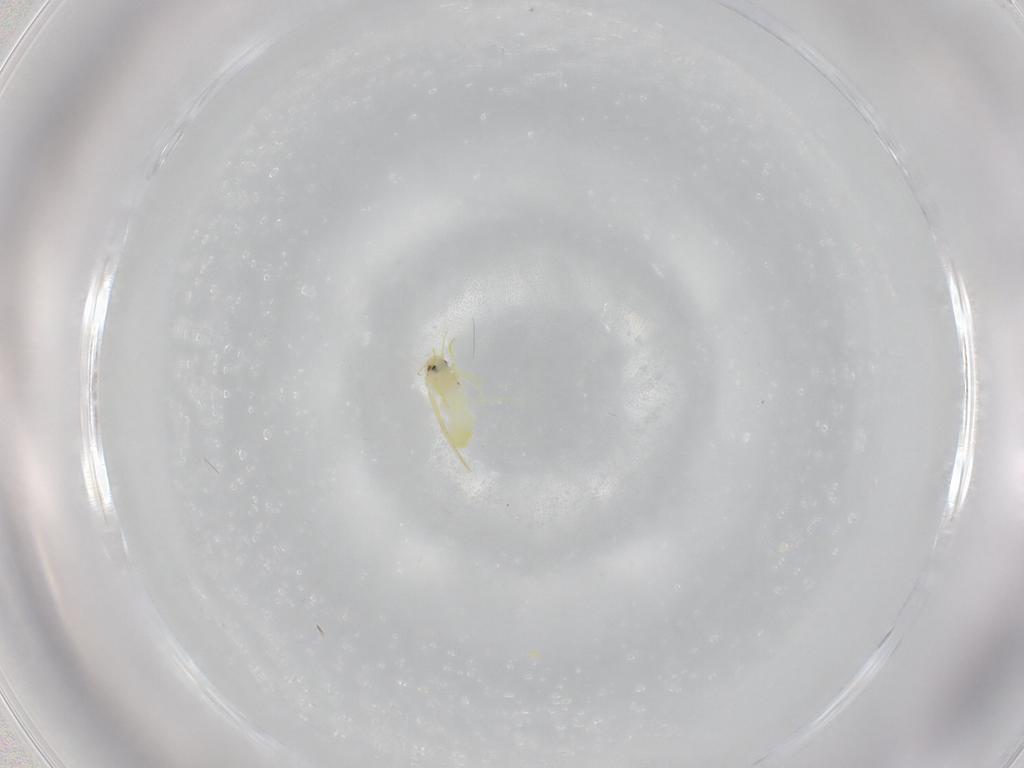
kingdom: Animalia
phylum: Arthropoda
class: Insecta
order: Hemiptera
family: Aleyrodidae
